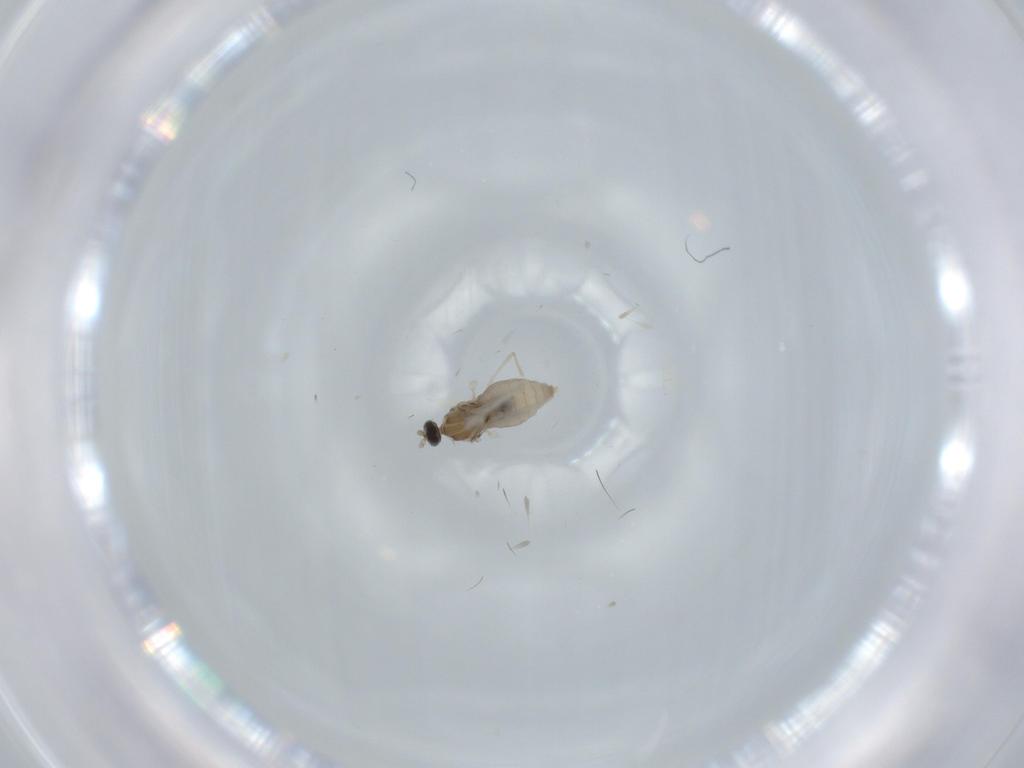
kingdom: Animalia
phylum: Arthropoda
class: Insecta
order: Diptera
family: Cecidomyiidae
